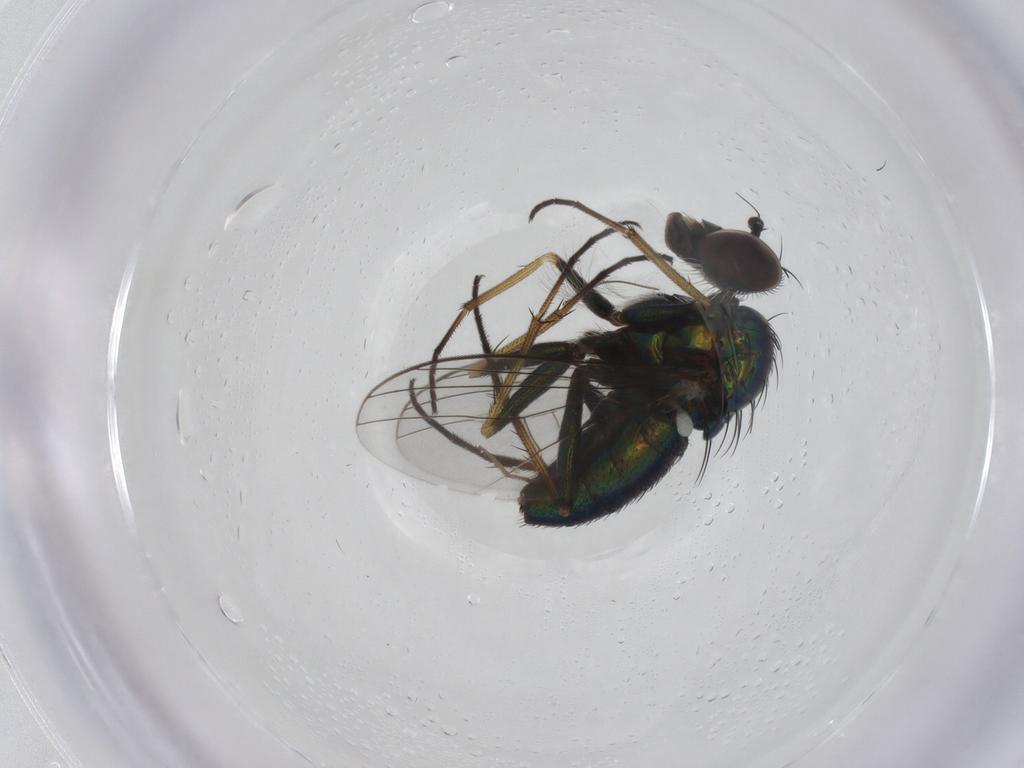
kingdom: Animalia
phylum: Arthropoda
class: Insecta
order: Diptera
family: Dolichopodidae
